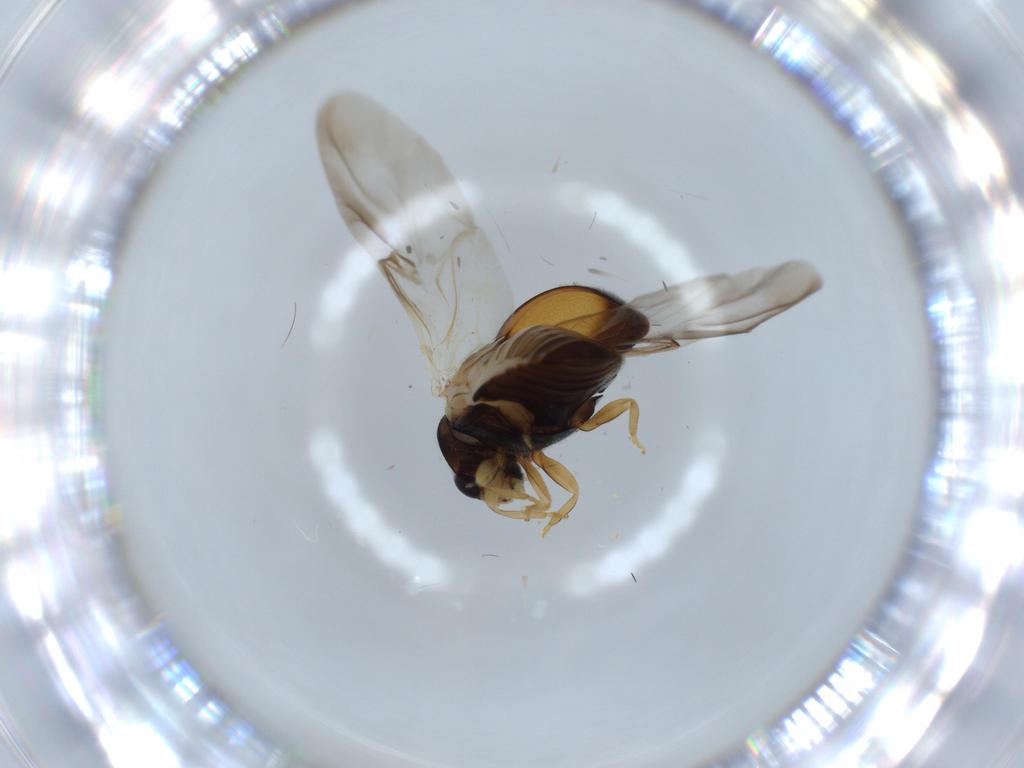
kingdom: Animalia
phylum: Arthropoda
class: Insecta
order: Coleoptera
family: Coccinellidae
